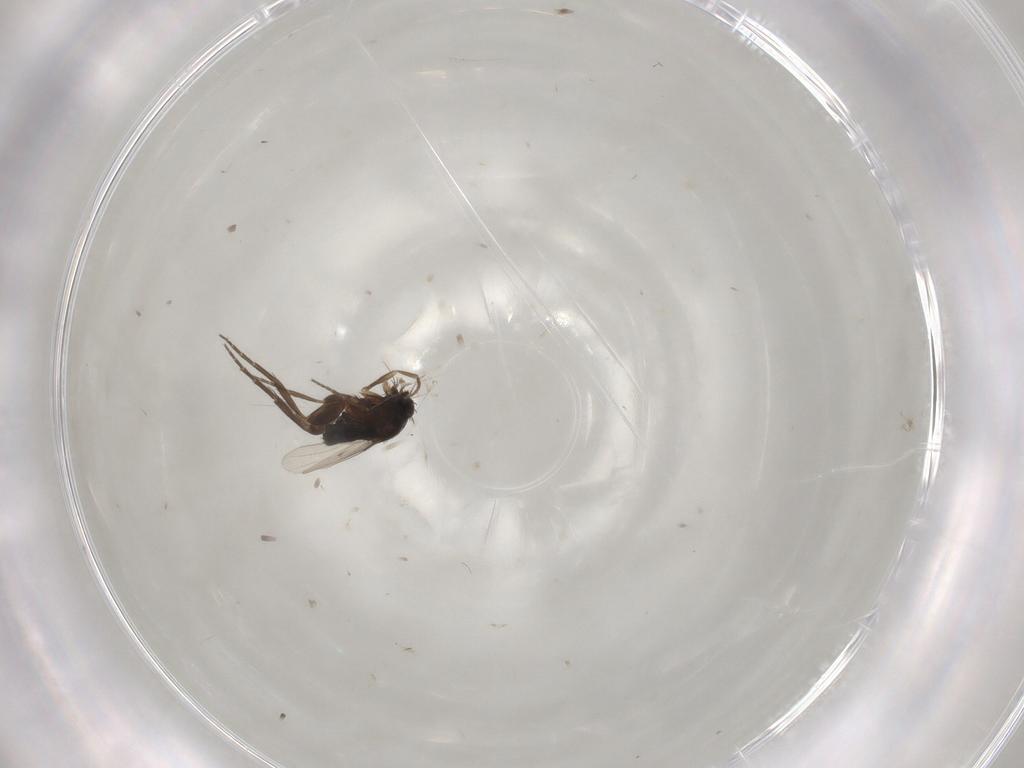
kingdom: Animalia
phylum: Arthropoda
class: Insecta
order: Diptera
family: Phoridae
